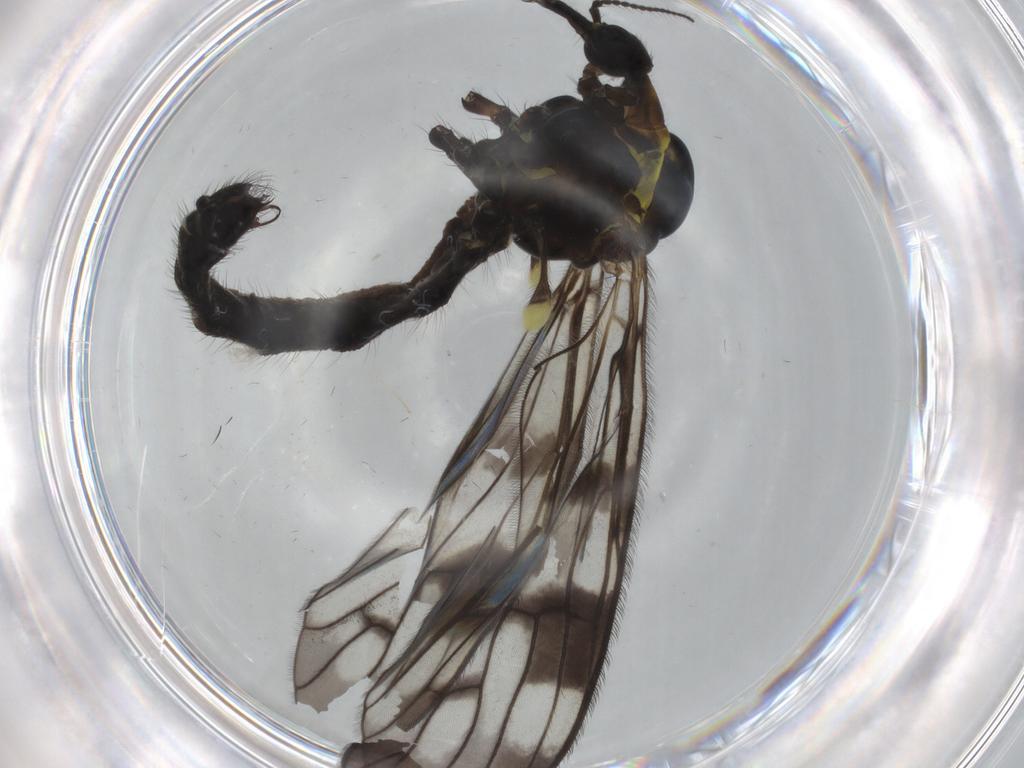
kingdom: Animalia
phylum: Arthropoda
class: Insecta
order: Diptera
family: Limoniidae
